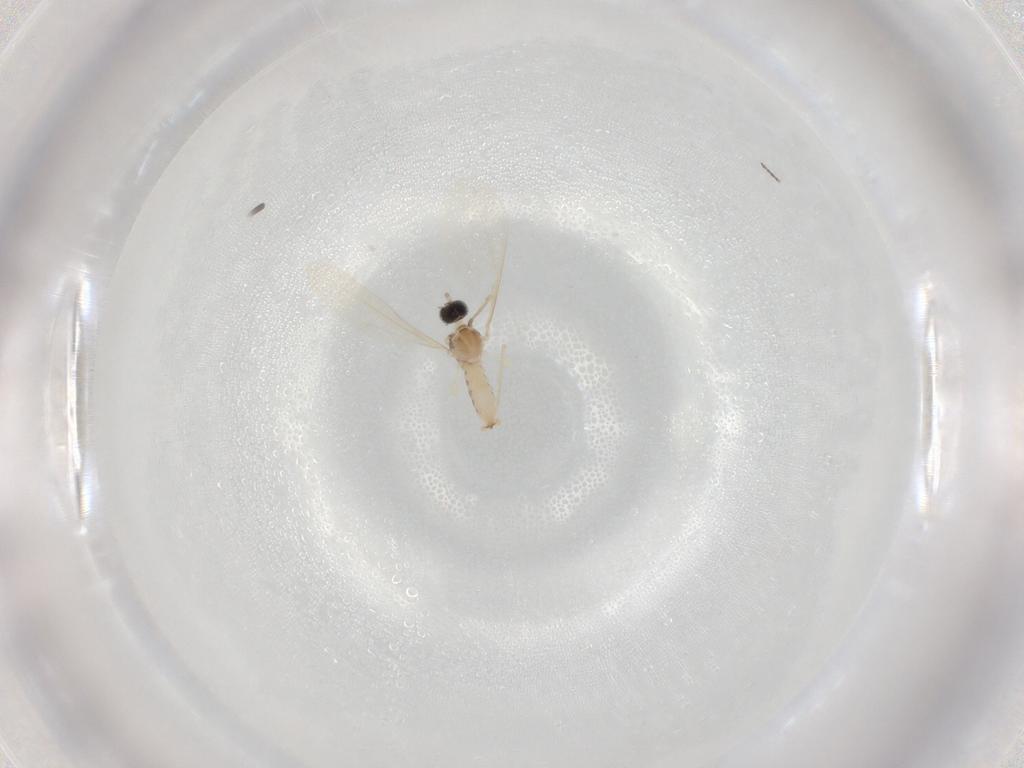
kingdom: Animalia
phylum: Arthropoda
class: Insecta
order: Diptera
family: Cecidomyiidae
